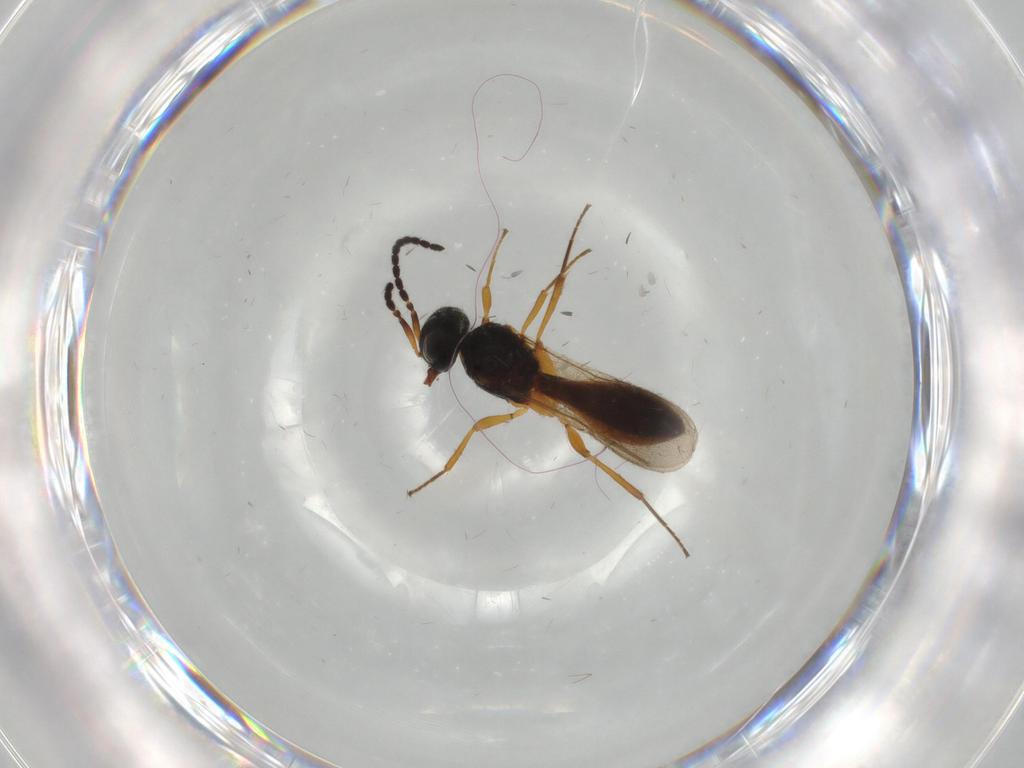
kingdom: Animalia
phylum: Arthropoda
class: Insecta
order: Hymenoptera
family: Scelionidae
